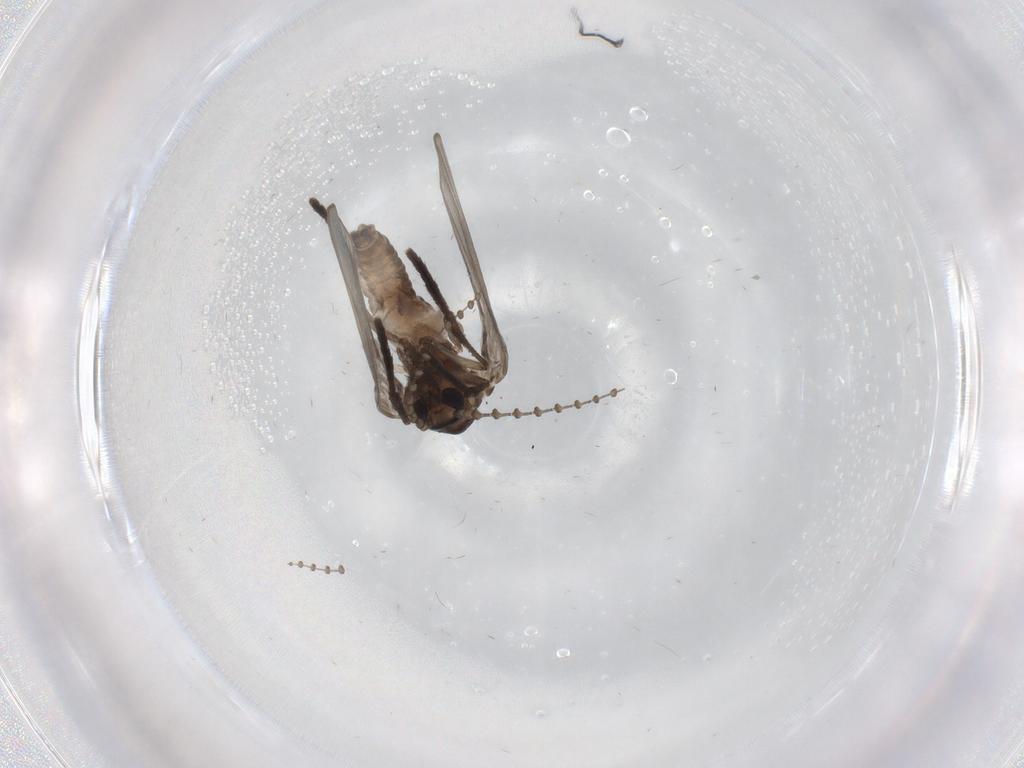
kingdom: Animalia
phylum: Arthropoda
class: Insecta
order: Diptera
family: Psychodidae
